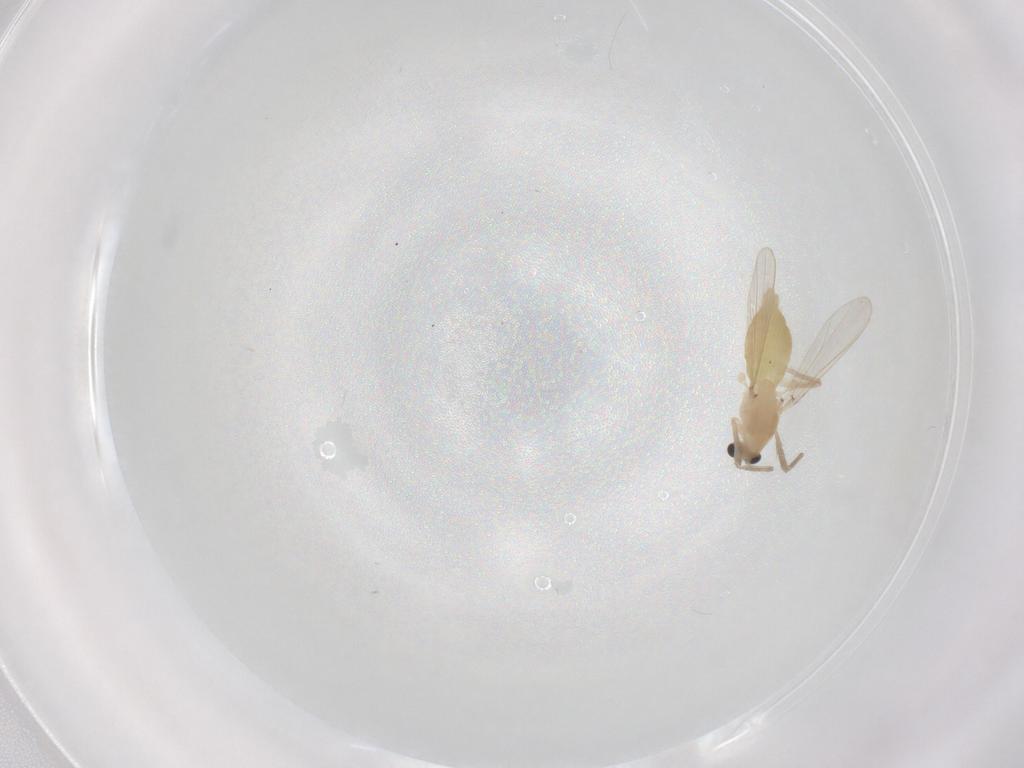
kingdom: Animalia
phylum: Arthropoda
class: Insecta
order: Diptera
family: Chironomidae
